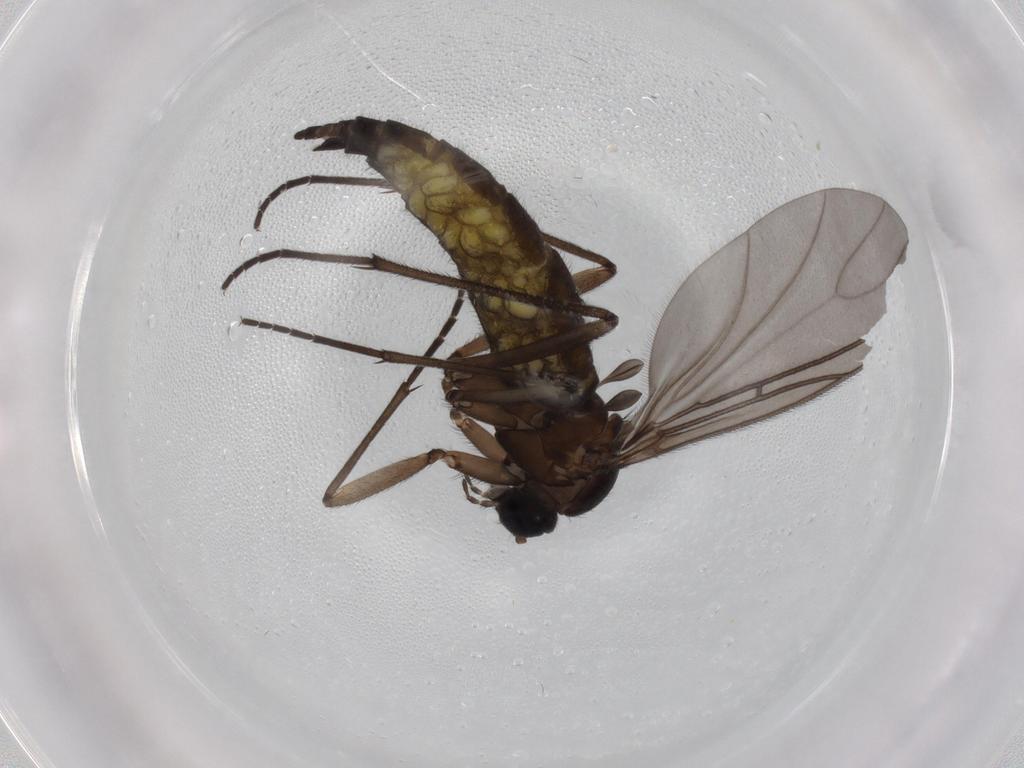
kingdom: Animalia
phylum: Arthropoda
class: Insecta
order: Diptera
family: Sciaridae
